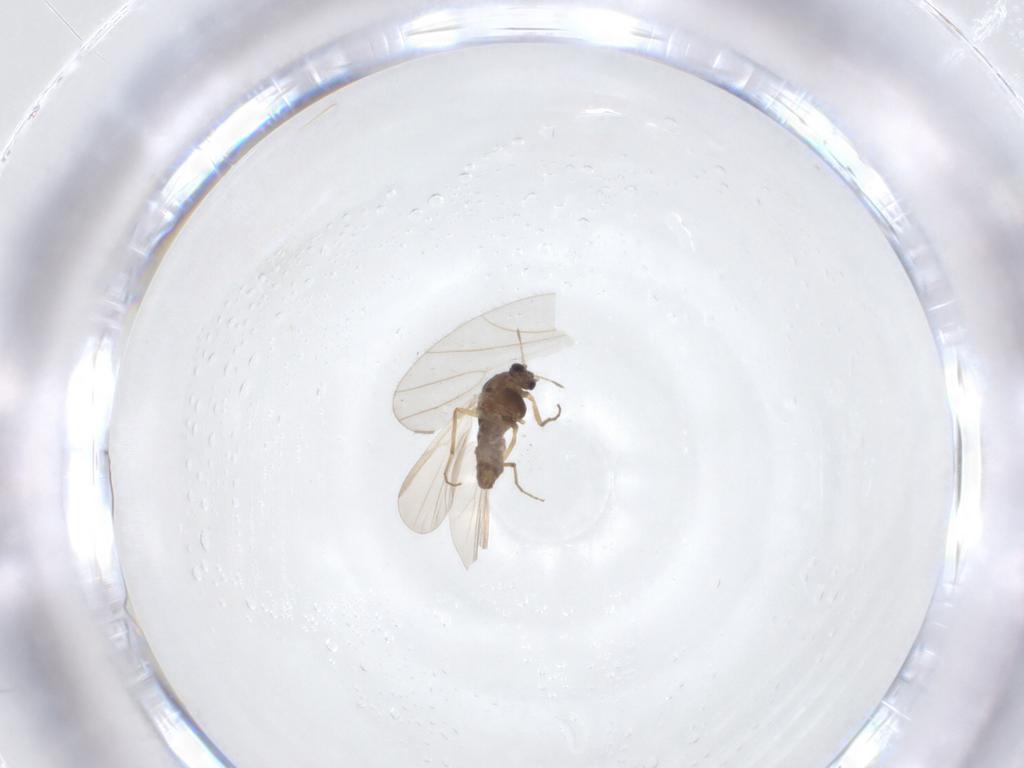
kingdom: Animalia
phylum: Arthropoda
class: Insecta
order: Diptera
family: Chironomidae
